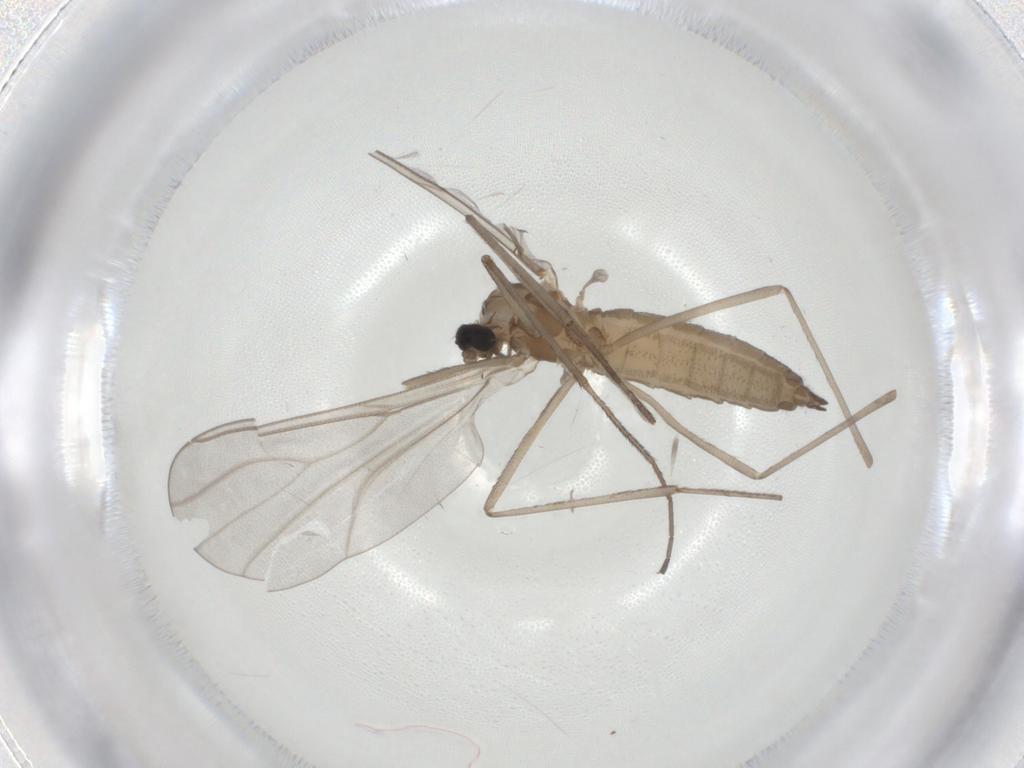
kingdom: Animalia
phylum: Arthropoda
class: Insecta
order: Diptera
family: Cecidomyiidae
